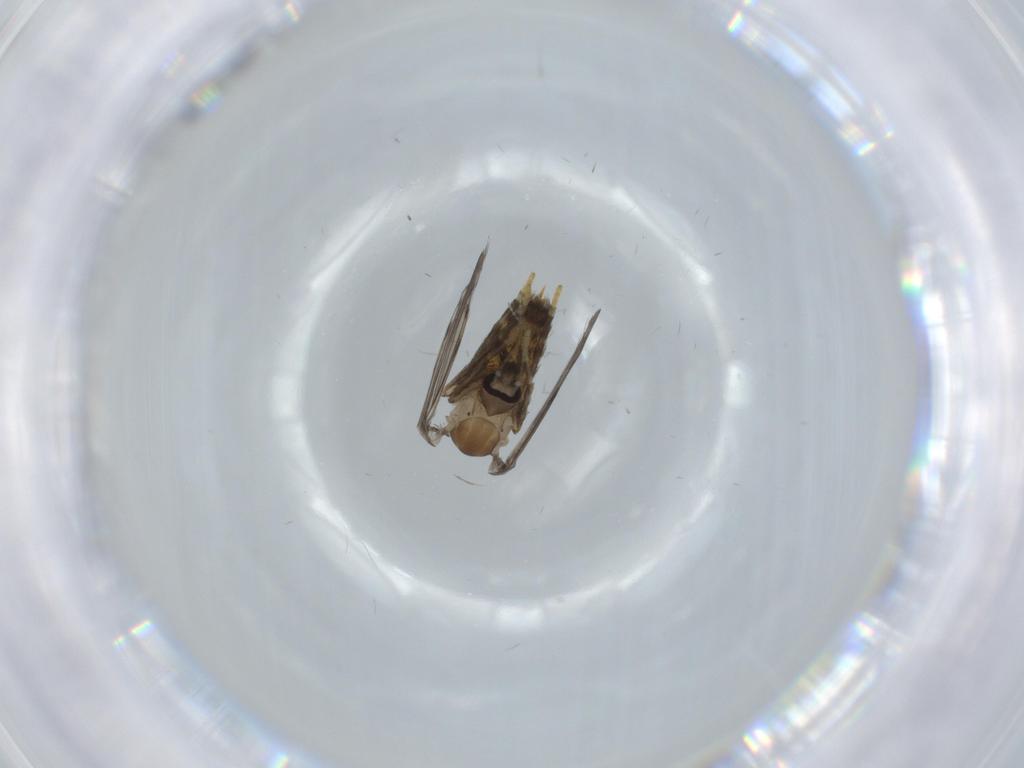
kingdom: Animalia
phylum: Arthropoda
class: Insecta
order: Diptera
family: Psychodidae
